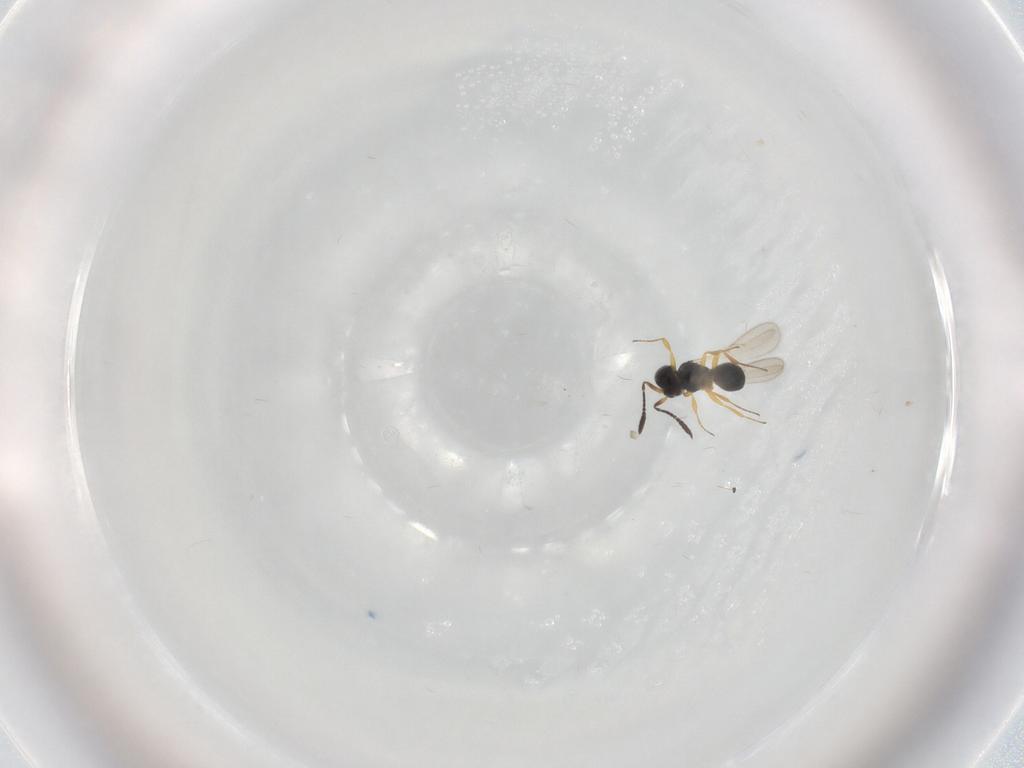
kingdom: Animalia
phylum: Arthropoda
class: Insecta
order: Hymenoptera
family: Scelionidae
